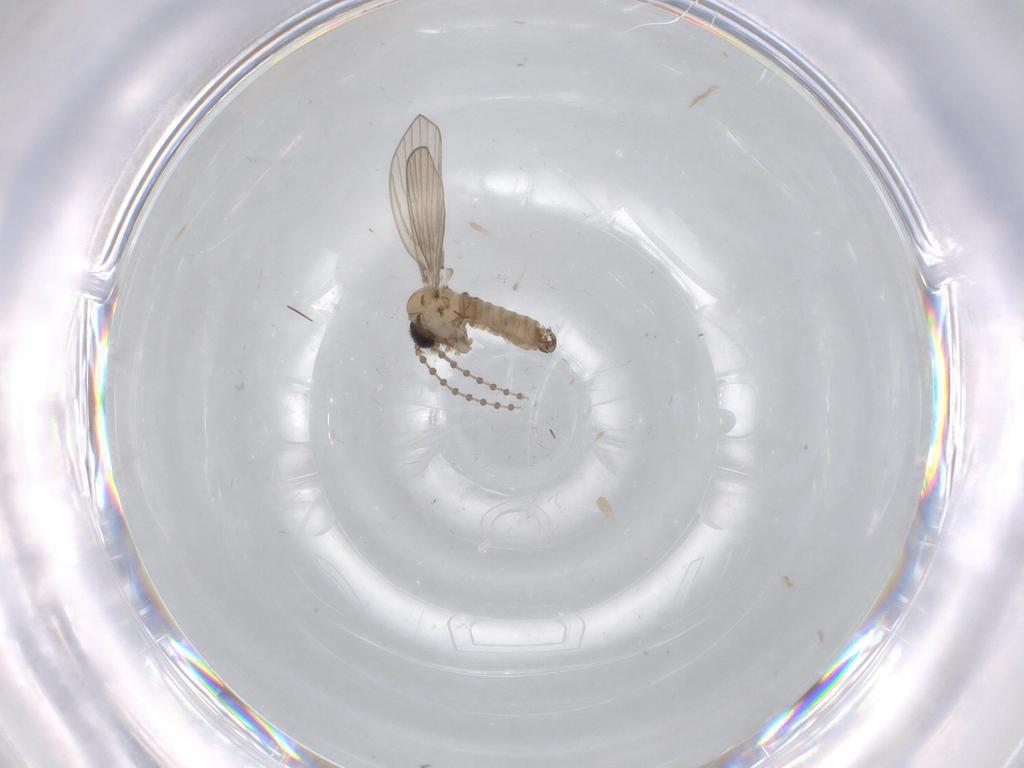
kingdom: Animalia
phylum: Arthropoda
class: Insecta
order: Diptera
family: Psychodidae
